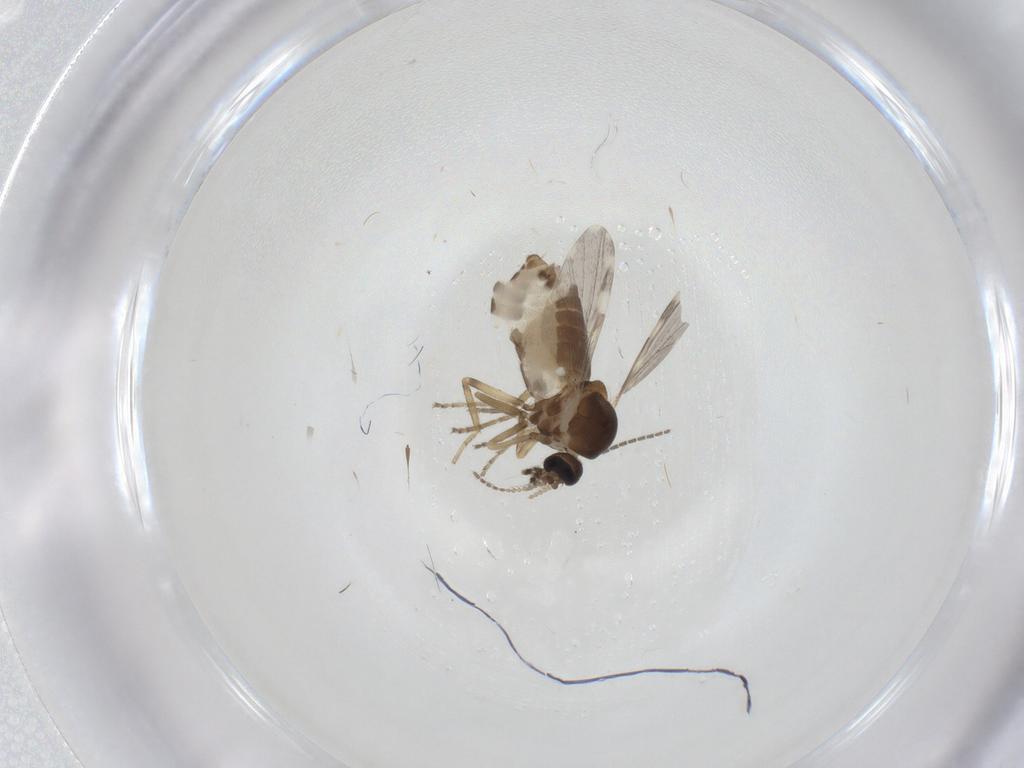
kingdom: Animalia
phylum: Arthropoda
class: Insecta
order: Diptera
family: Ceratopogonidae
